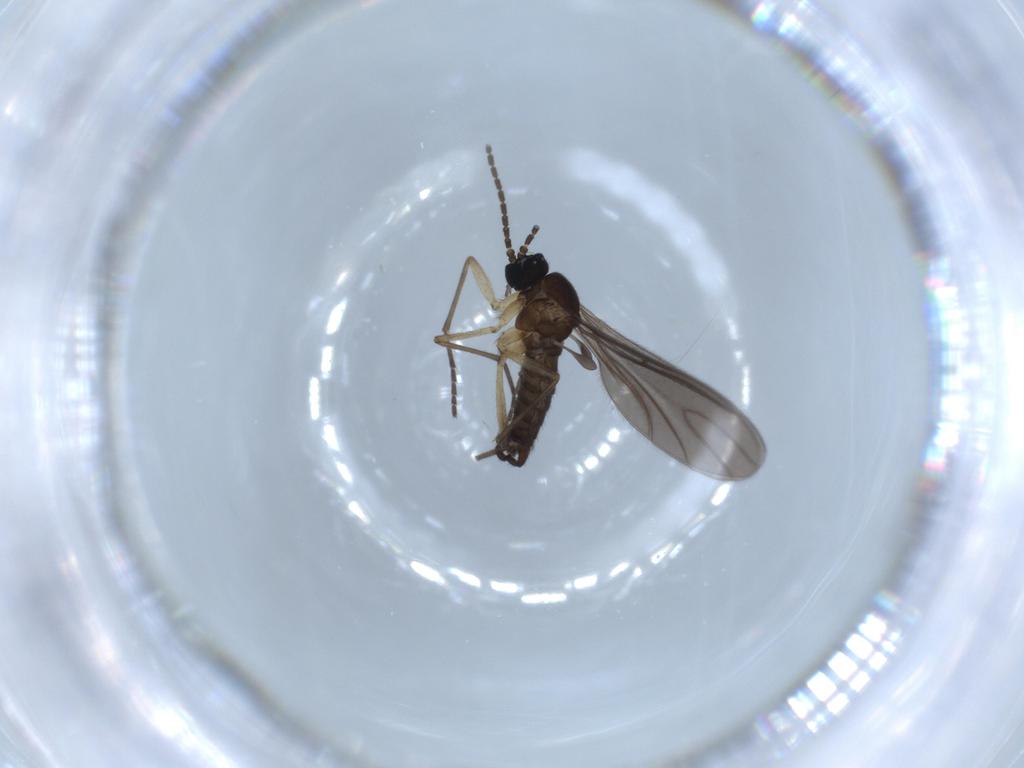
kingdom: Animalia
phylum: Arthropoda
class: Insecta
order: Diptera
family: Sciaridae
